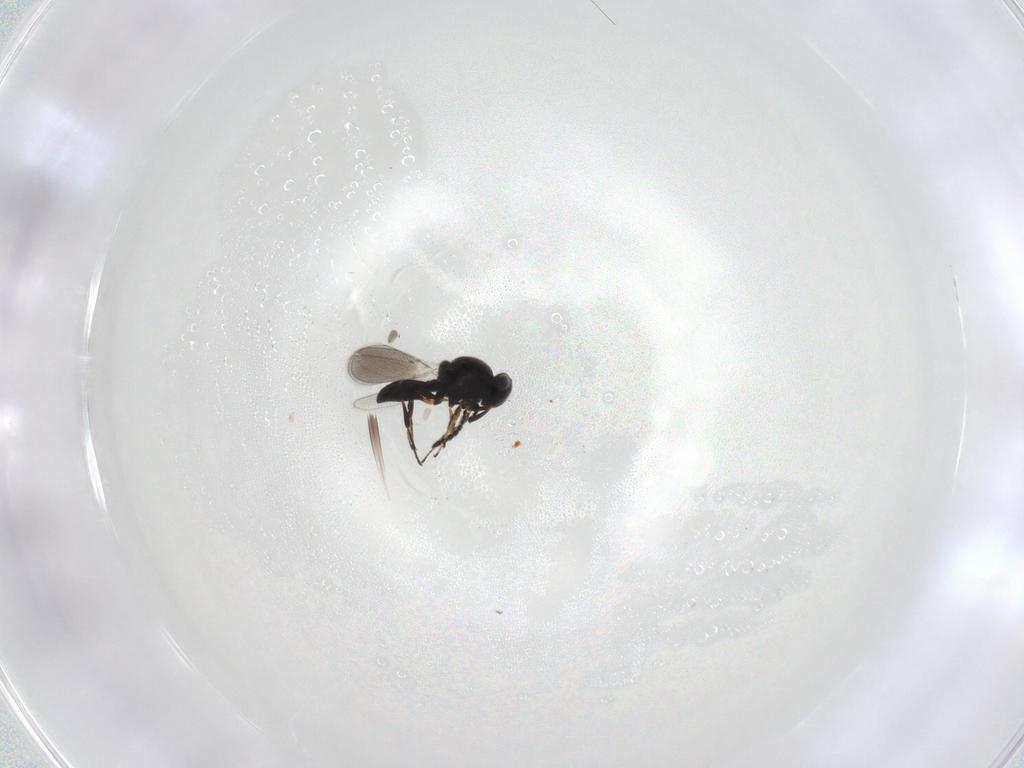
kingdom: Animalia
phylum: Arthropoda
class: Insecta
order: Hymenoptera
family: Platygastridae
